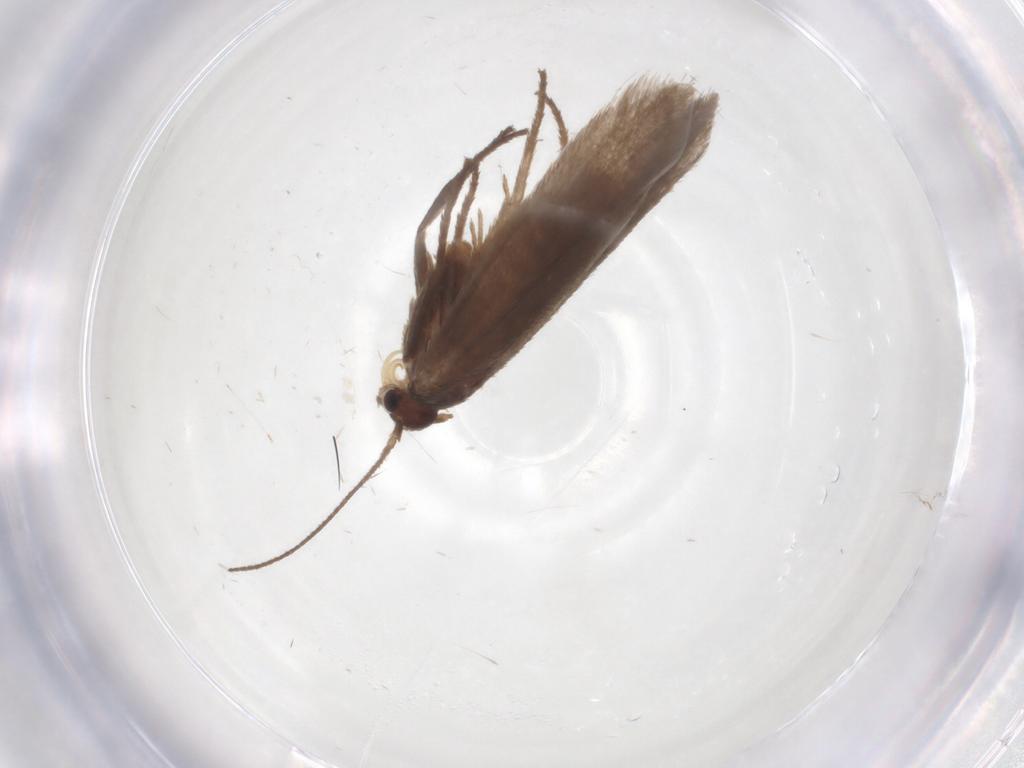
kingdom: Animalia
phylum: Arthropoda
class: Insecta
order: Lepidoptera
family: Limacodidae
